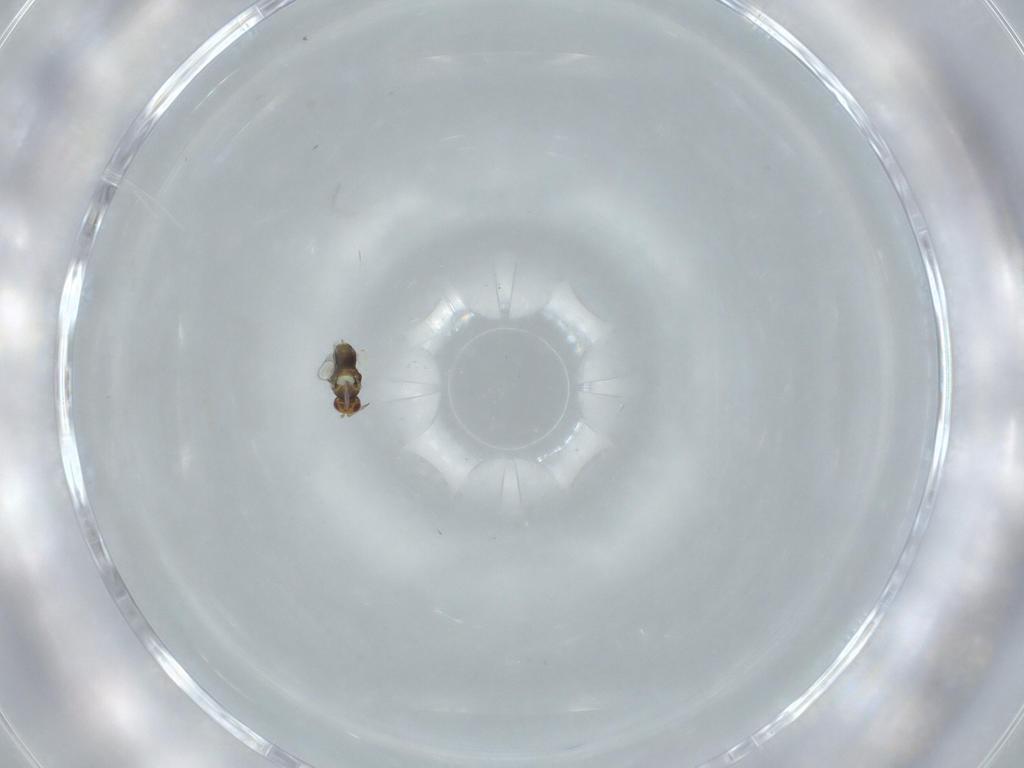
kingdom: Animalia
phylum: Arthropoda
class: Insecta
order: Hymenoptera
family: Aphelinidae
